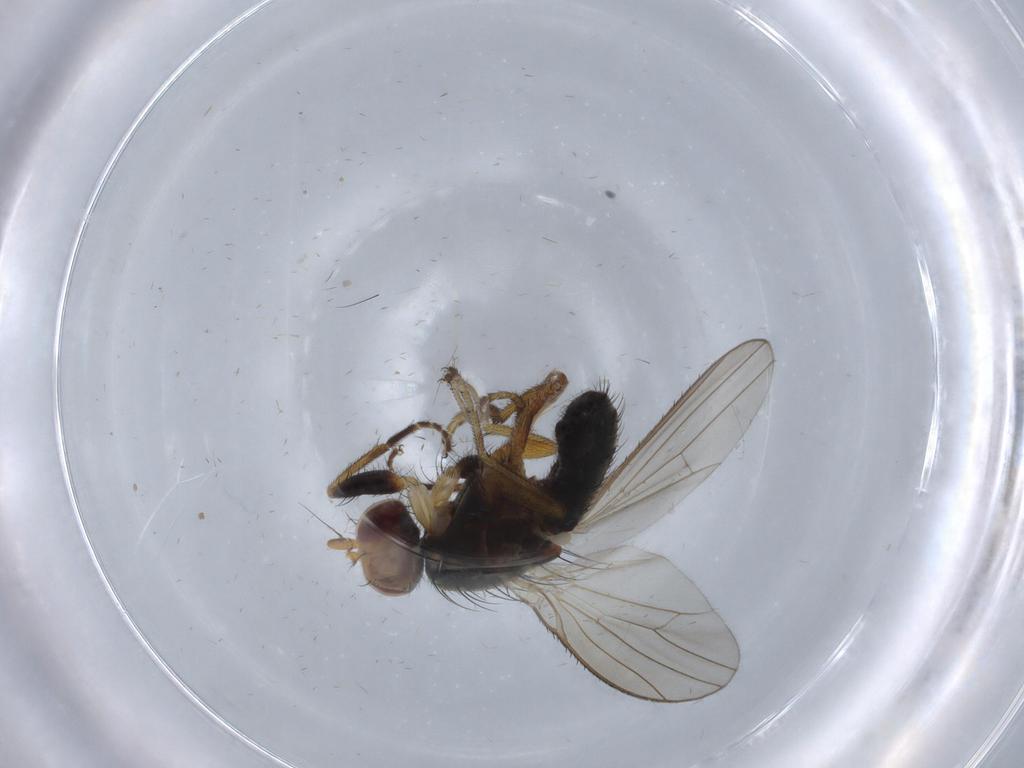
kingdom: Animalia
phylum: Arthropoda
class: Insecta
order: Diptera
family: Heleomyzidae
